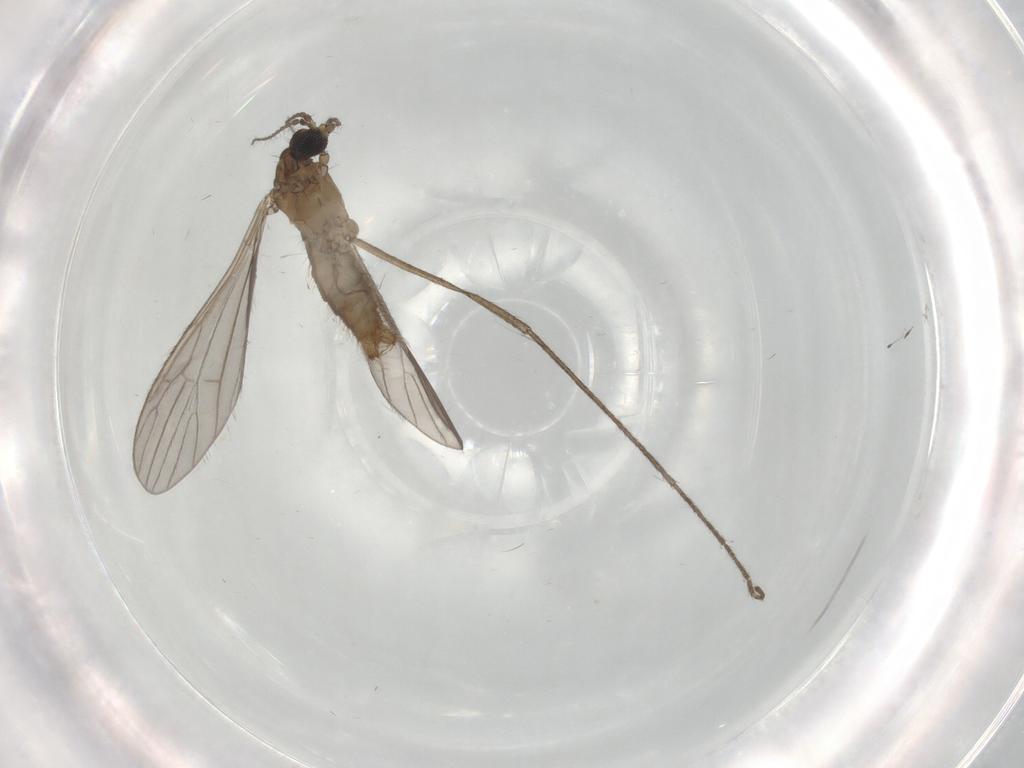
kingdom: Animalia
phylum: Arthropoda
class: Insecta
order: Diptera
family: Limoniidae
